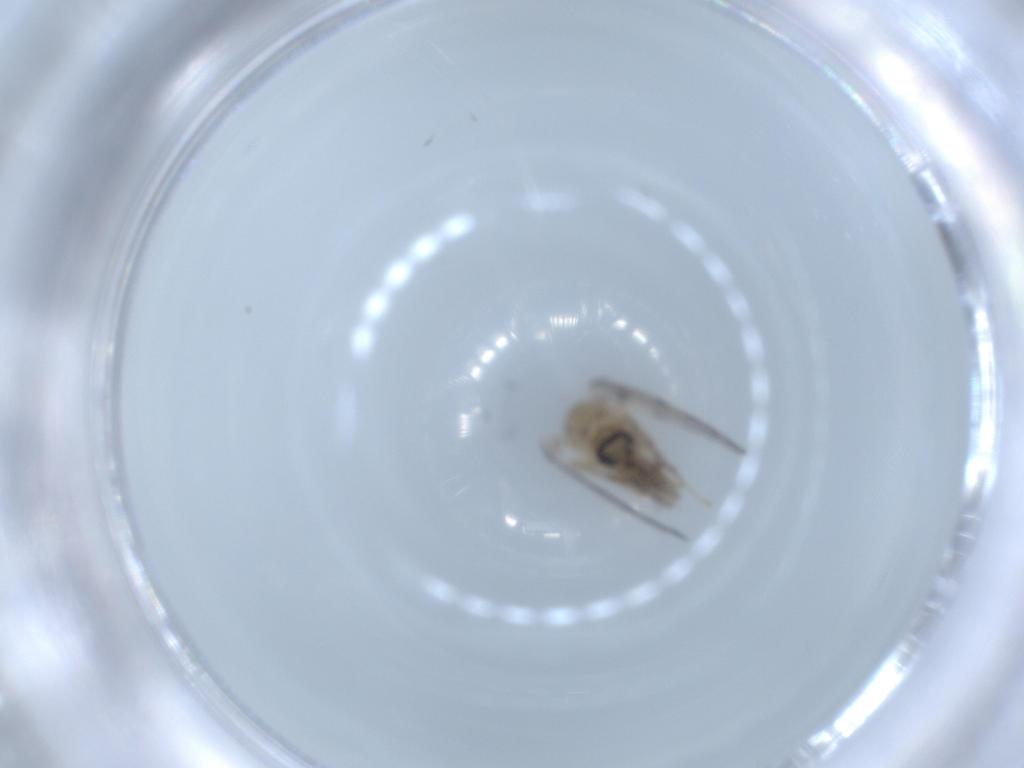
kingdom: Animalia
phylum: Arthropoda
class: Insecta
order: Diptera
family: Psychodidae
